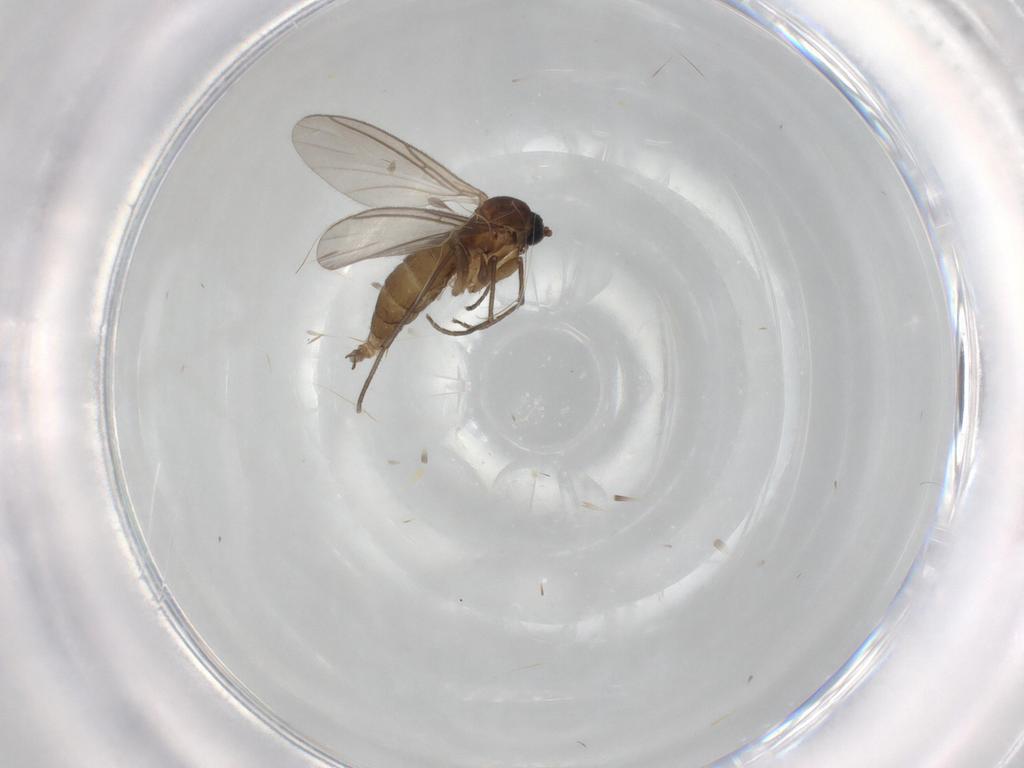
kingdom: Animalia
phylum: Arthropoda
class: Insecta
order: Diptera
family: Sciaridae
